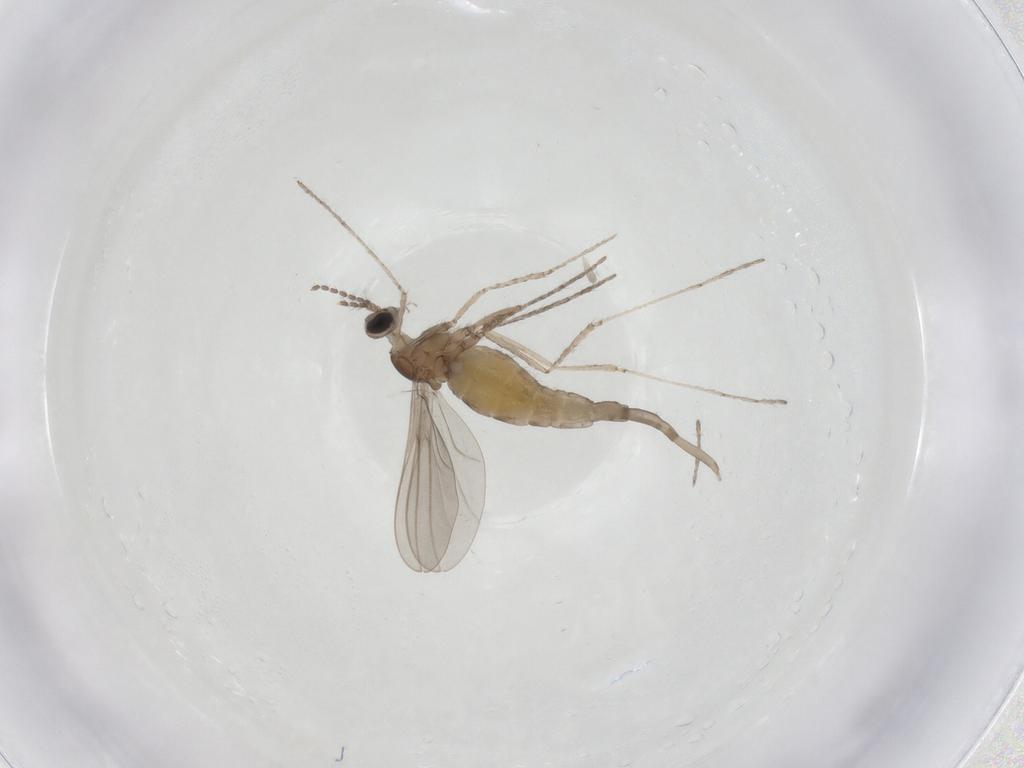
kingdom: Animalia
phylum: Arthropoda
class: Insecta
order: Diptera
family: Cecidomyiidae
